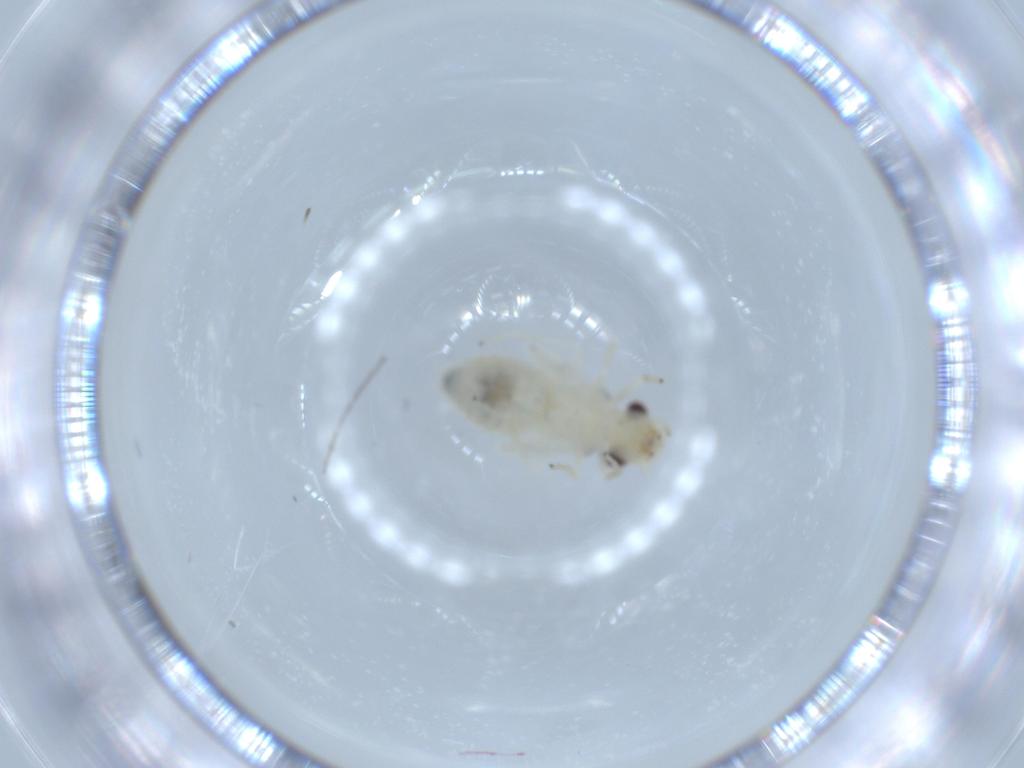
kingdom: Animalia
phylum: Arthropoda
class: Insecta
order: Psocodea
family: Caeciliusidae
